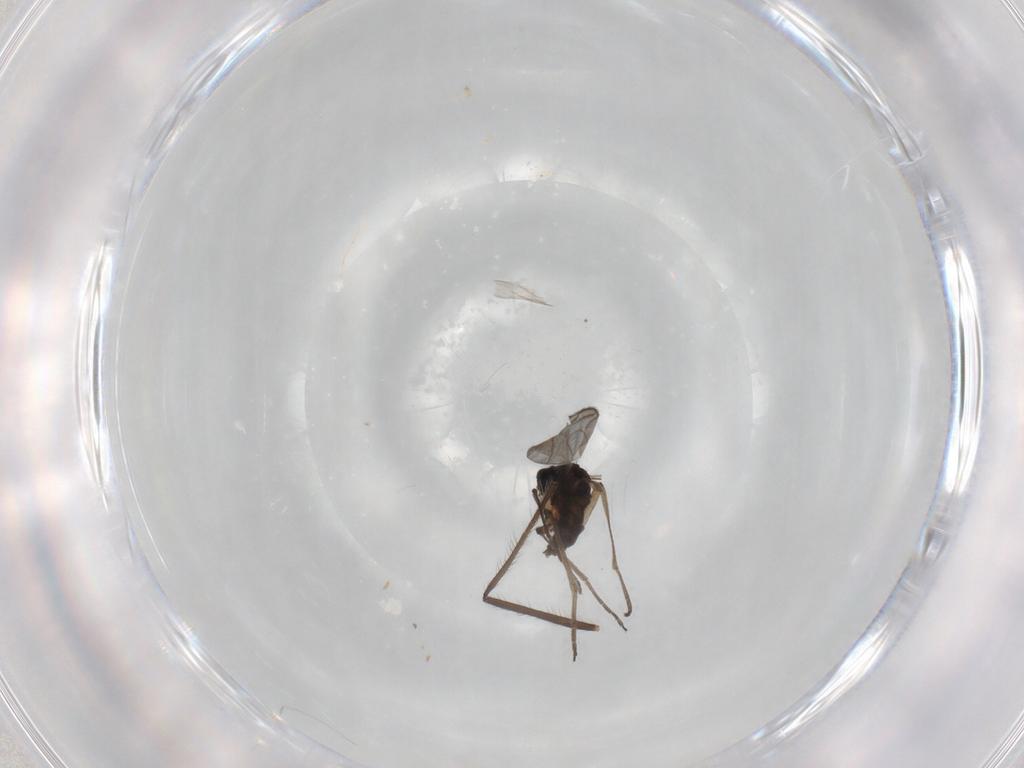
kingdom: Animalia
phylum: Arthropoda
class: Insecta
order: Diptera
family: Sciaridae
